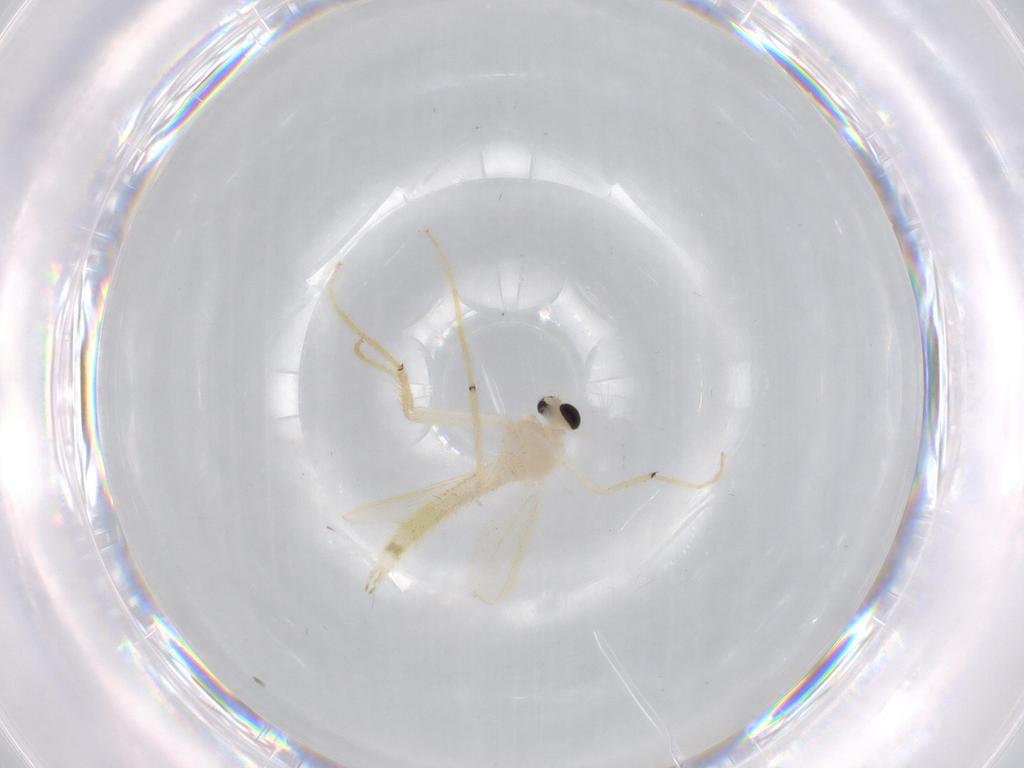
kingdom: Animalia
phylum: Arthropoda
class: Insecta
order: Diptera
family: Chironomidae
